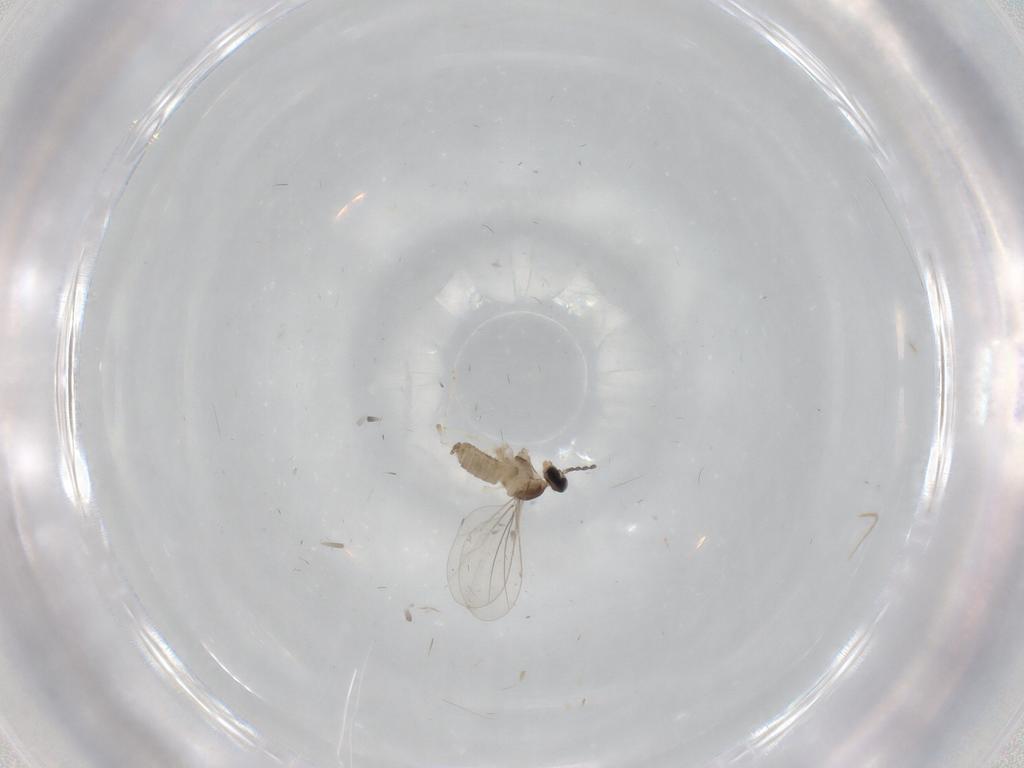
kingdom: Animalia
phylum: Arthropoda
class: Insecta
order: Diptera
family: Cecidomyiidae
